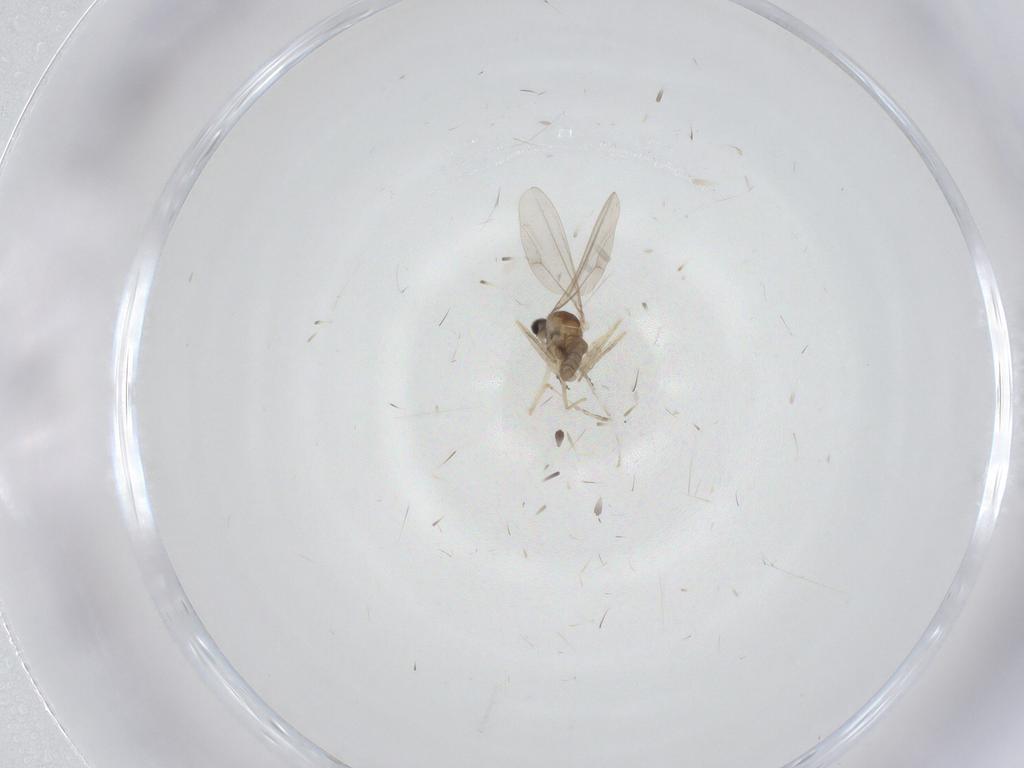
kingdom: Animalia
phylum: Arthropoda
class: Insecta
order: Diptera
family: Cecidomyiidae
